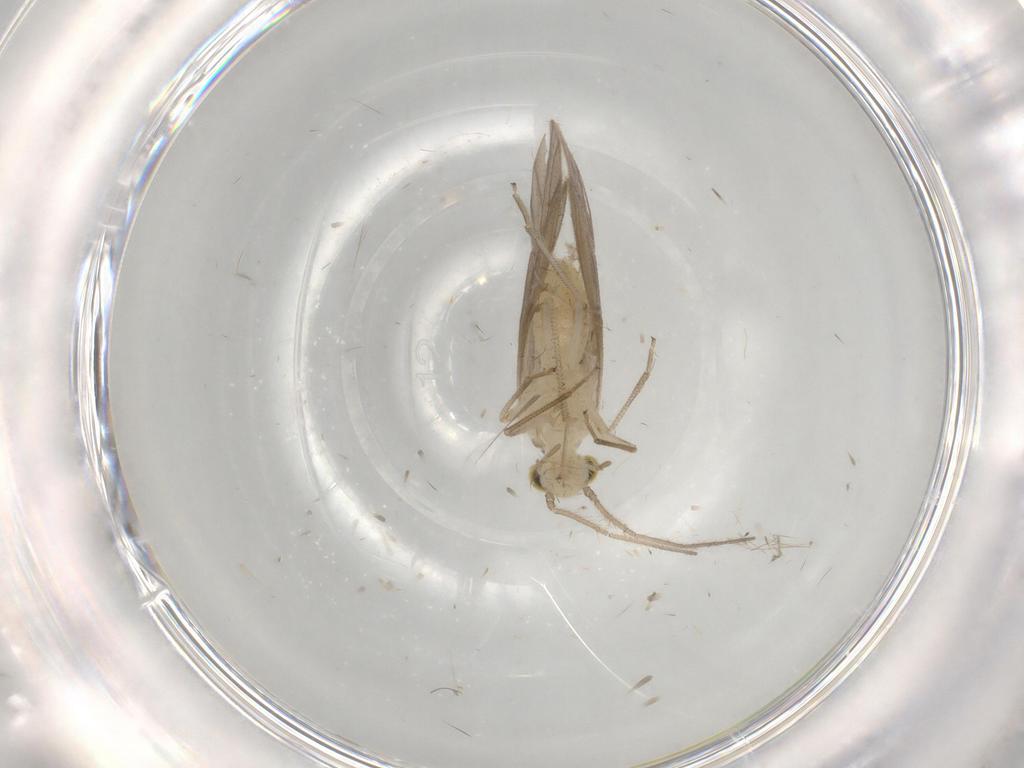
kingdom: Animalia
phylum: Arthropoda
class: Insecta
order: Psocodea
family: Caeciliusidae
